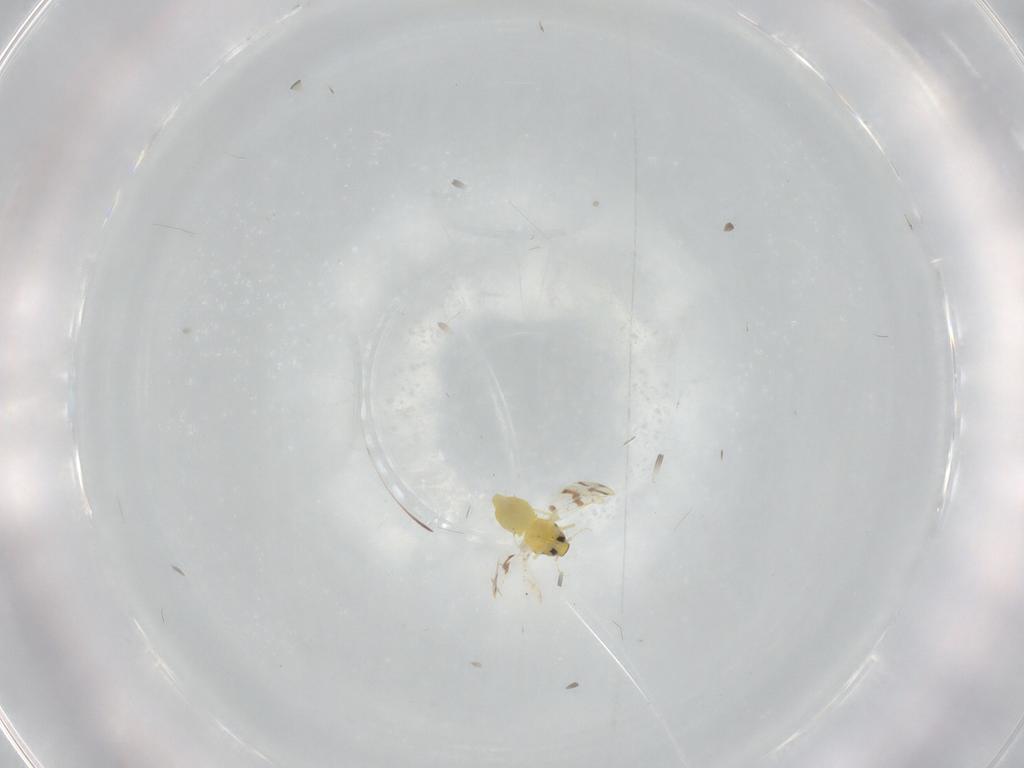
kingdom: Animalia
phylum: Arthropoda
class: Insecta
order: Hemiptera
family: Aleyrodidae
